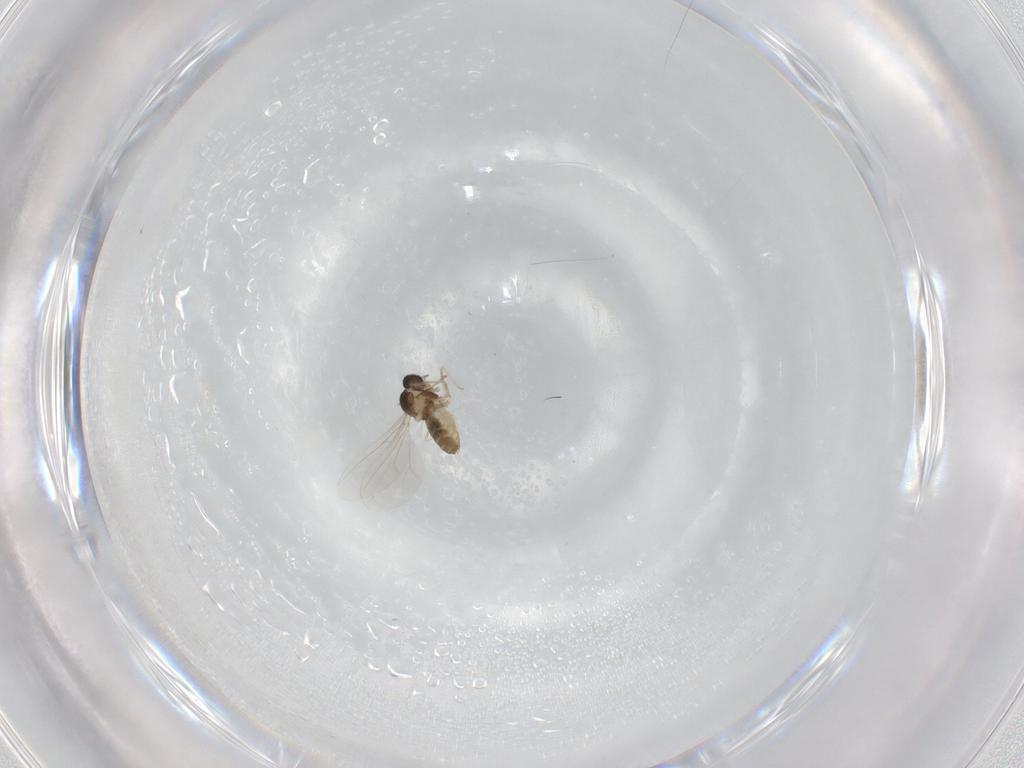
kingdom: Animalia
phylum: Arthropoda
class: Insecta
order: Diptera
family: Cecidomyiidae
